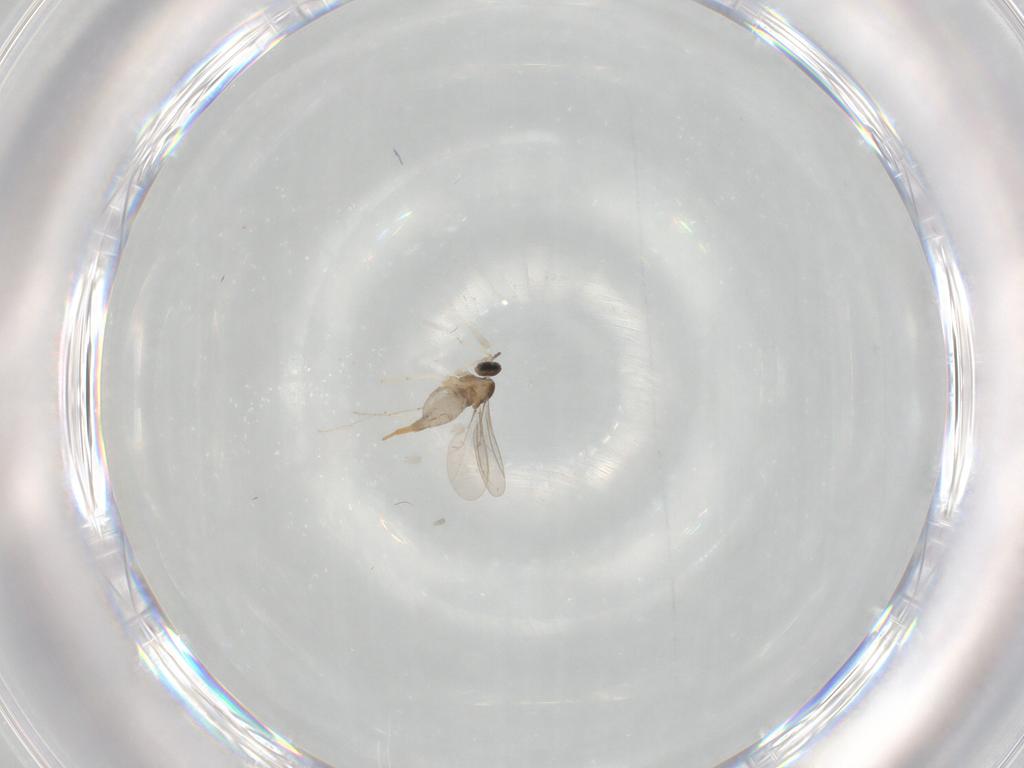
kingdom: Animalia
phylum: Arthropoda
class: Insecta
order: Diptera
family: Cecidomyiidae
